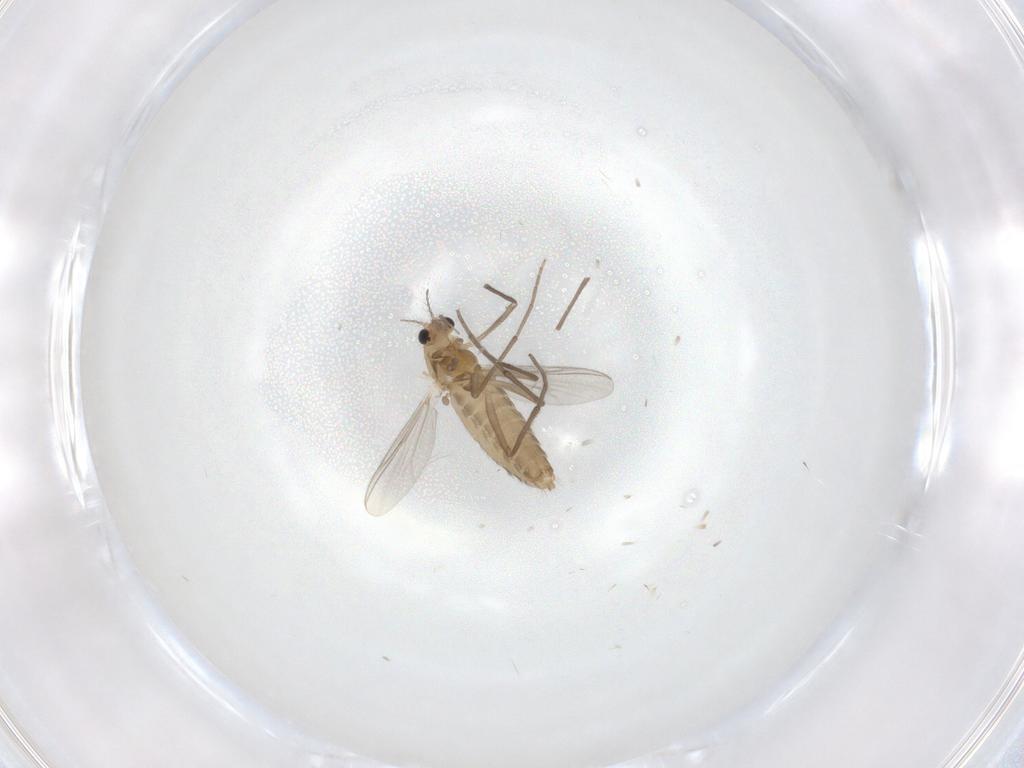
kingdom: Animalia
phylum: Arthropoda
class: Insecta
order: Diptera
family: Chironomidae
